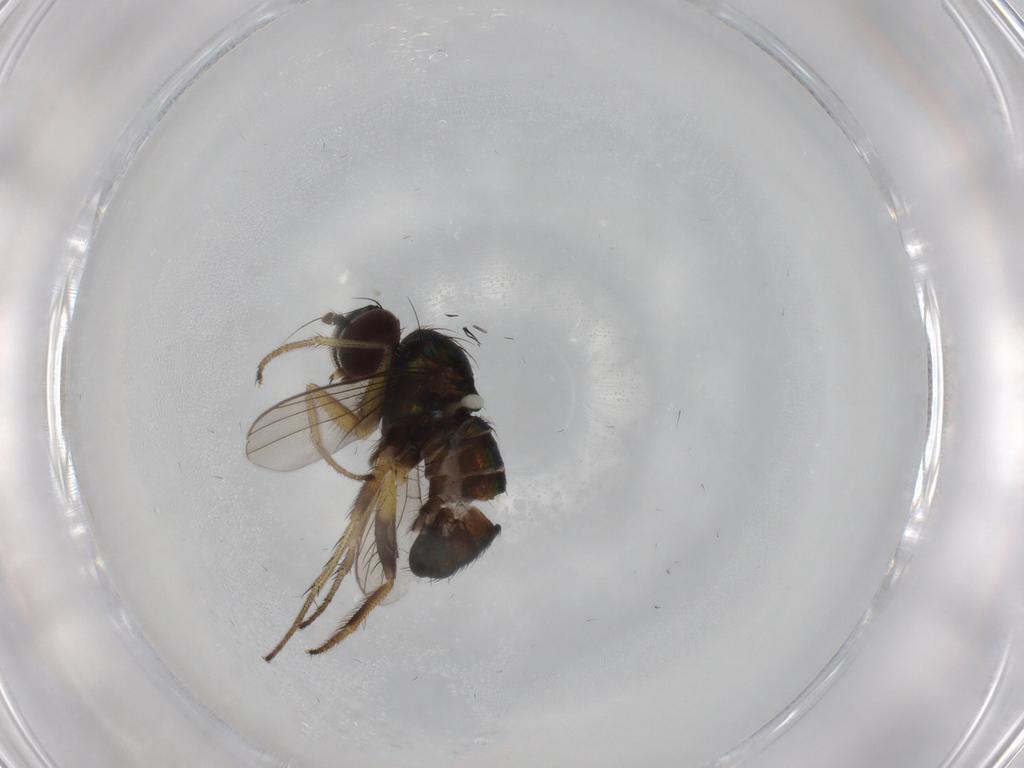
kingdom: Animalia
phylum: Arthropoda
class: Insecta
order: Diptera
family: Dolichopodidae
